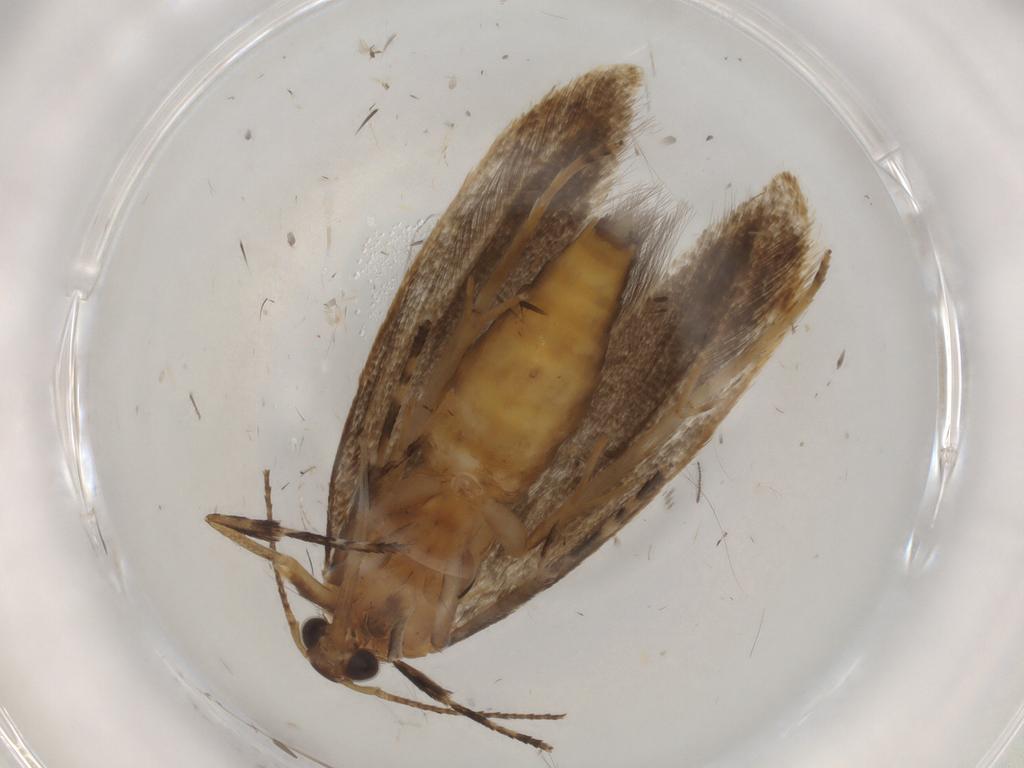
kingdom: Animalia
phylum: Arthropoda
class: Insecta
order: Lepidoptera
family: Oecophoridae
